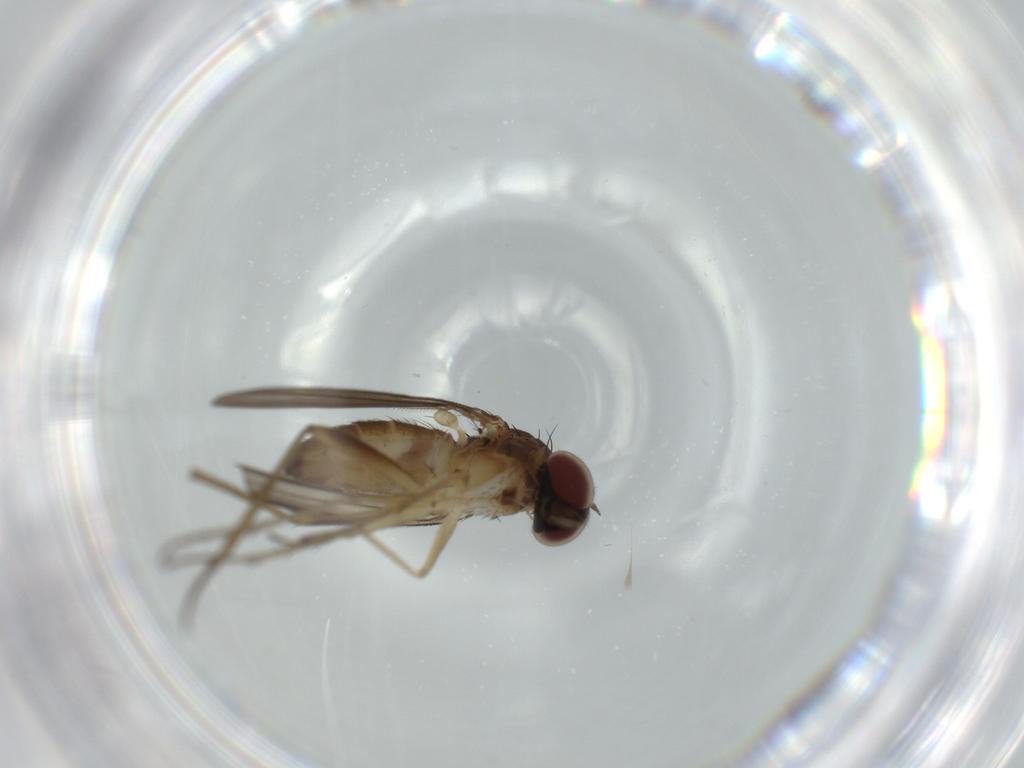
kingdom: Animalia
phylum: Arthropoda
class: Insecta
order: Diptera
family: Dolichopodidae
